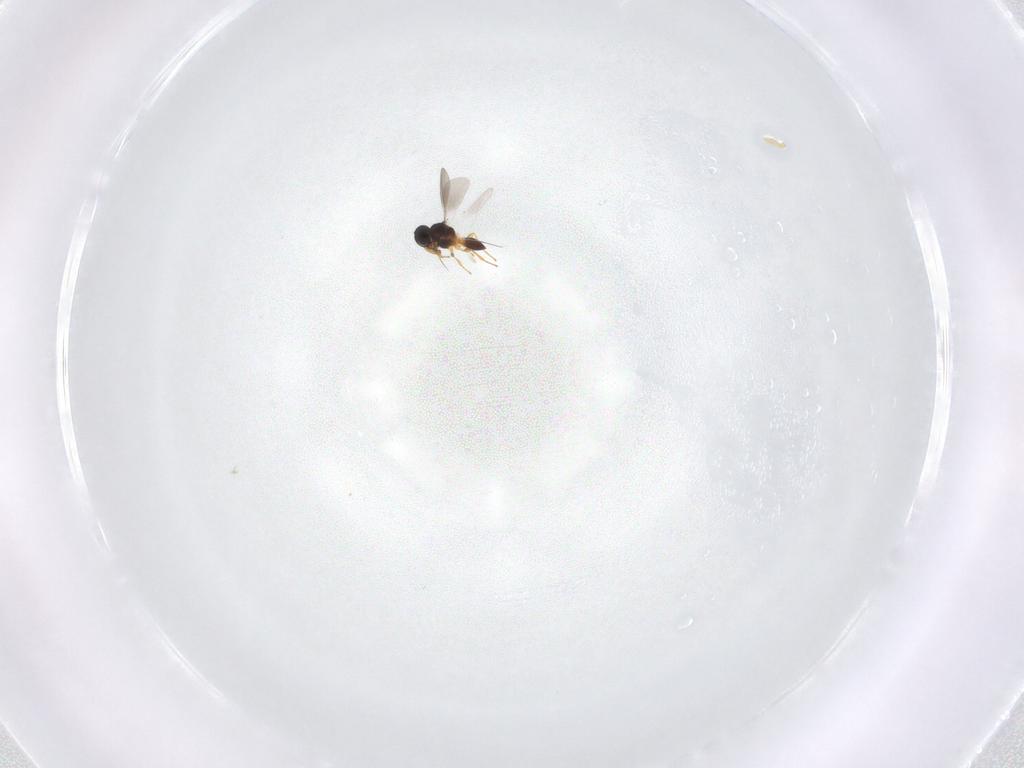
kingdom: Animalia
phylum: Arthropoda
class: Insecta
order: Hymenoptera
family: Platygastridae
